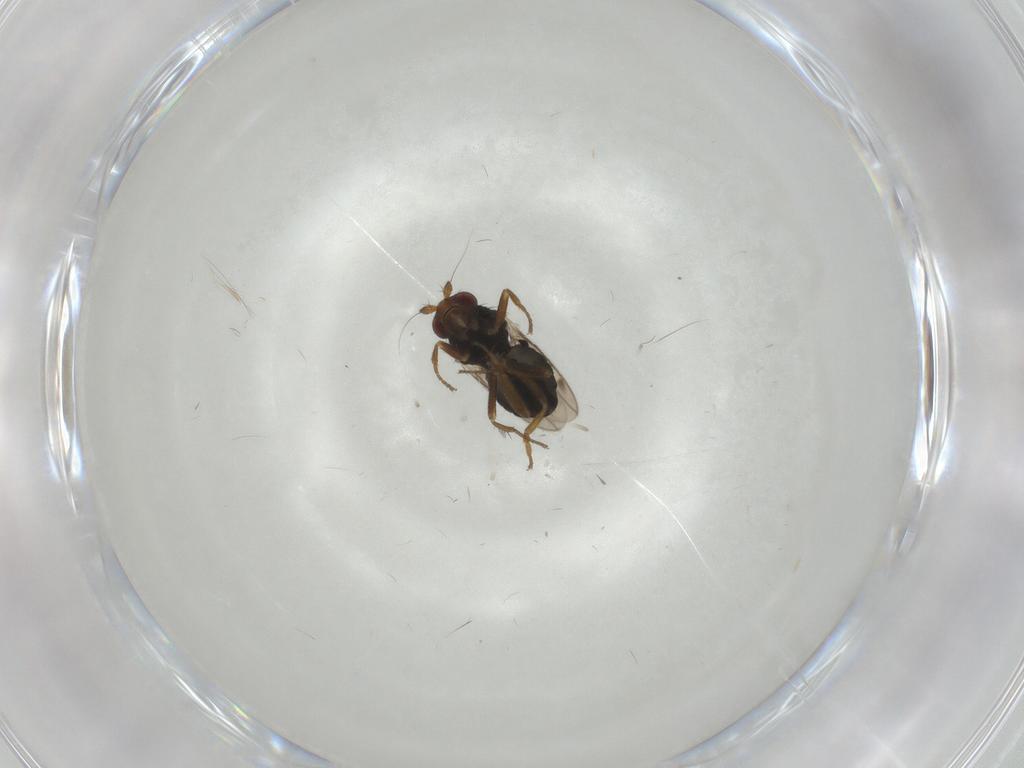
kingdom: Animalia
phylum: Arthropoda
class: Insecta
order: Diptera
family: Sphaeroceridae
